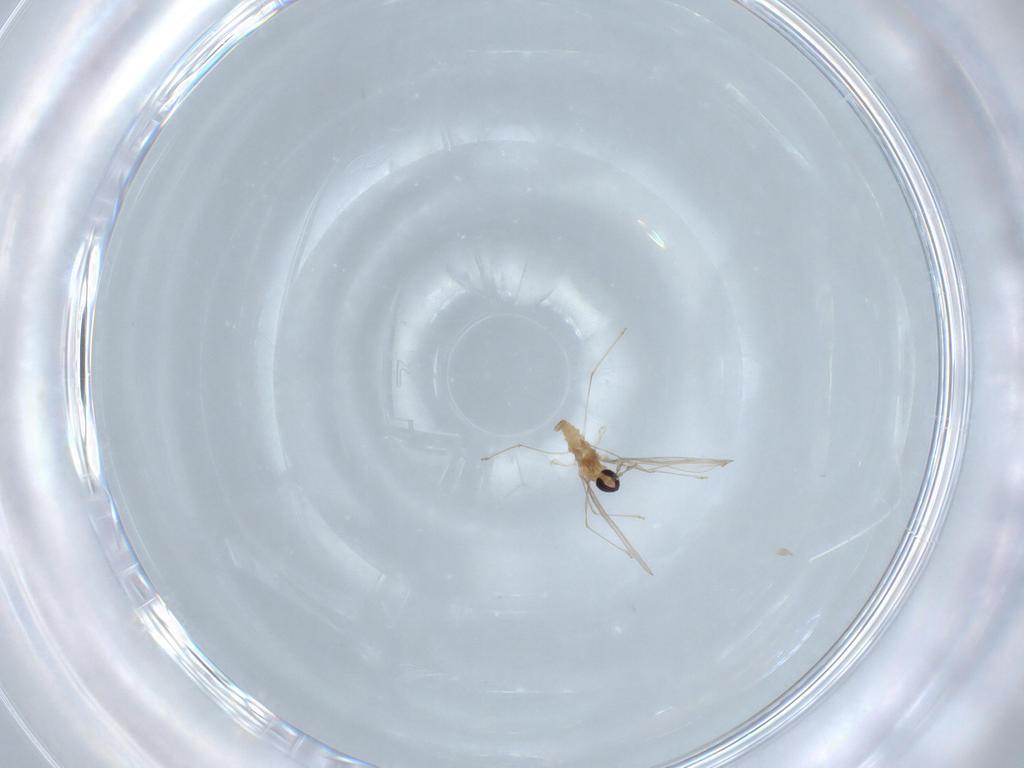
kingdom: Animalia
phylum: Arthropoda
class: Insecta
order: Diptera
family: Cecidomyiidae
